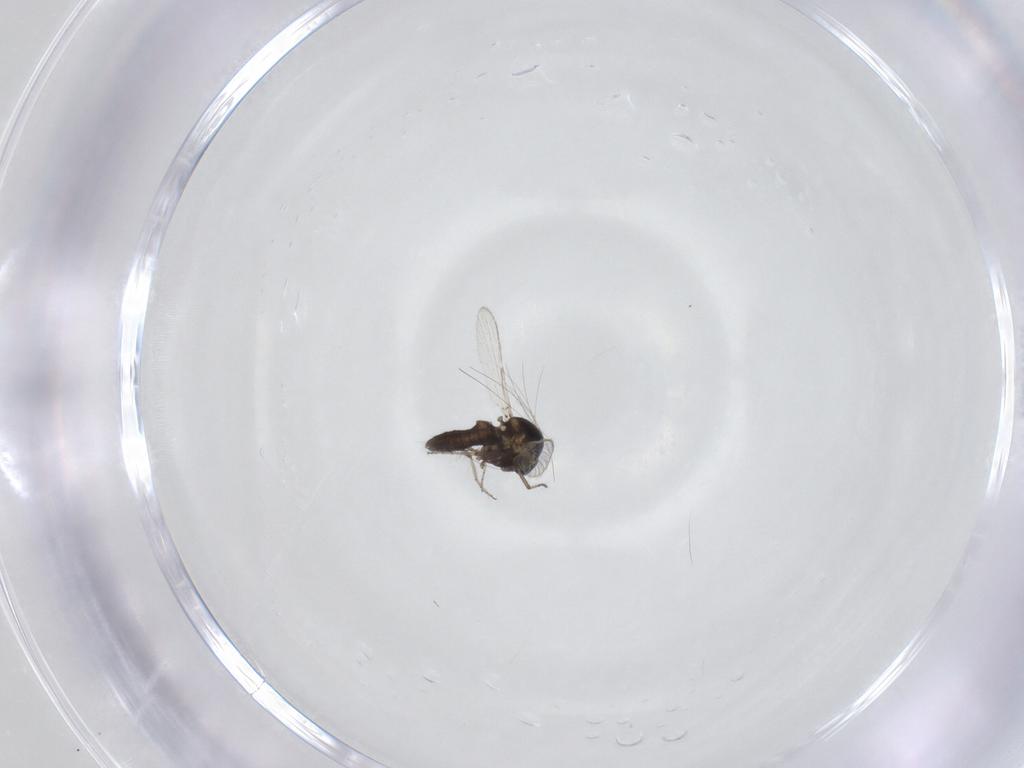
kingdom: Animalia
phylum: Arthropoda
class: Insecta
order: Diptera
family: Ceratopogonidae
